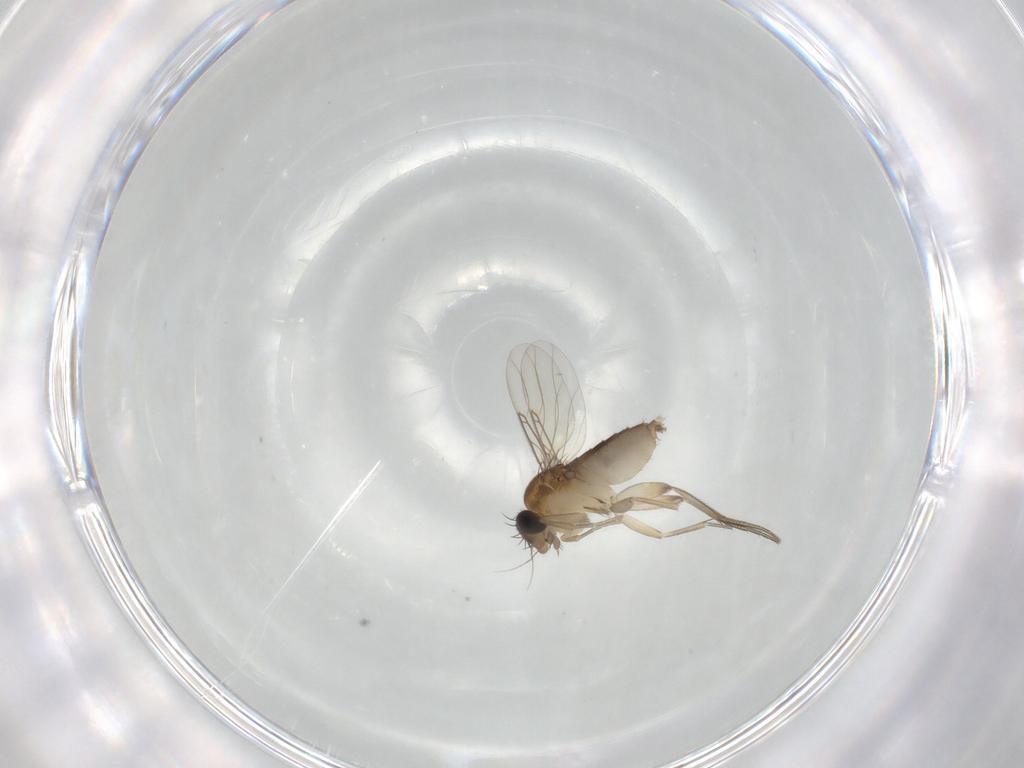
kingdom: Animalia
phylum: Arthropoda
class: Insecta
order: Diptera
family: Phoridae
